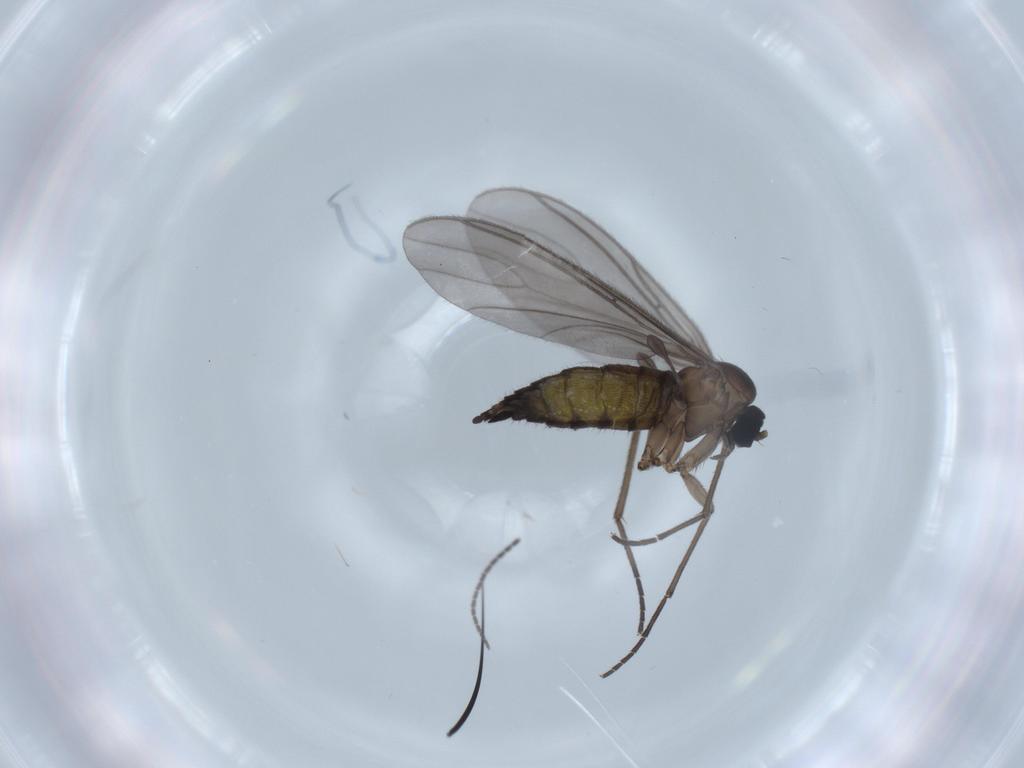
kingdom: Animalia
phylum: Arthropoda
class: Insecta
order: Diptera
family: Sciaridae
